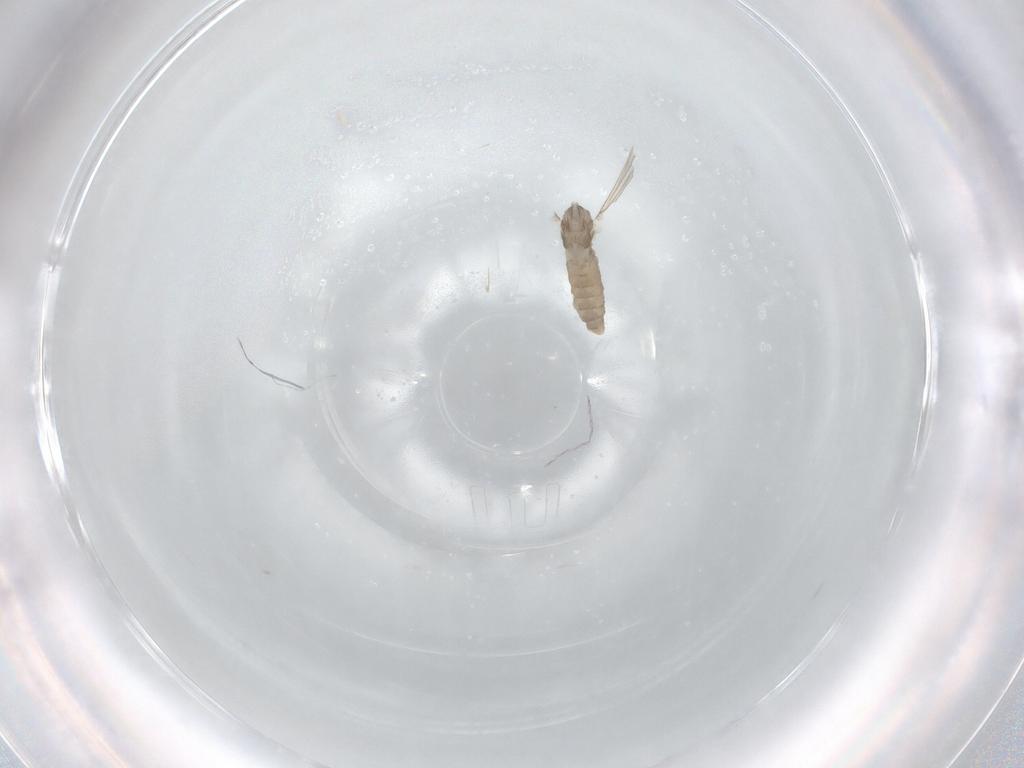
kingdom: Animalia
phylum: Arthropoda
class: Insecta
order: Diptera
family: Cecidomyiidae
